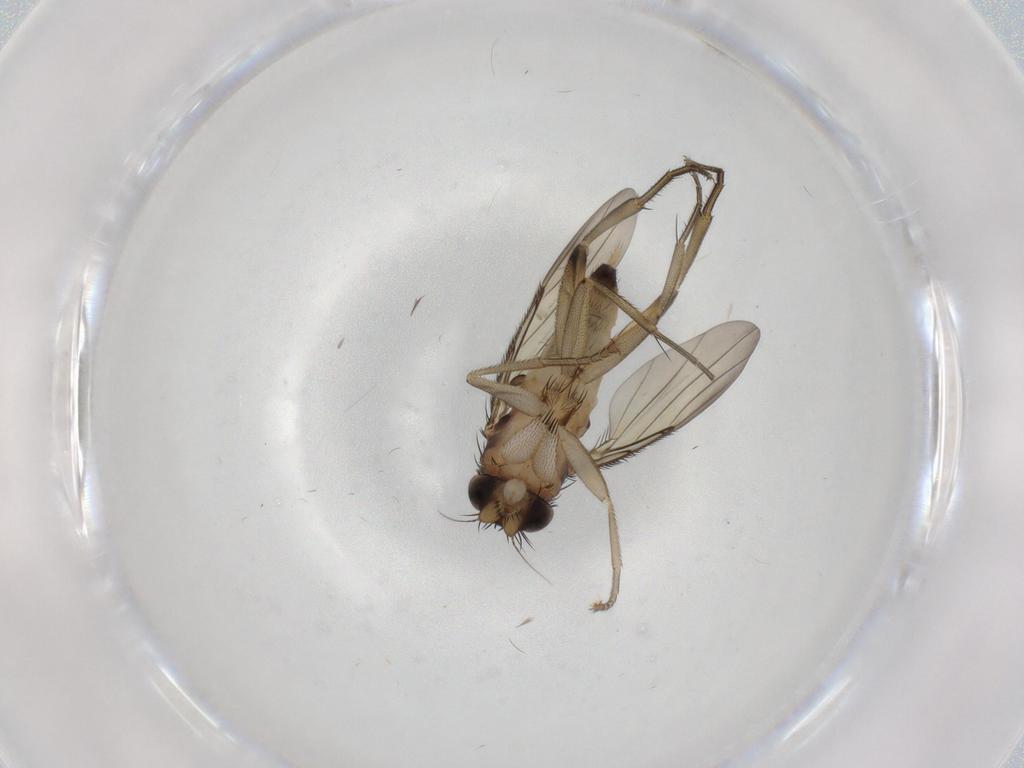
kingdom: Animalia
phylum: Arthropoda
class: Insecta
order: Diptera
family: Phoridae
